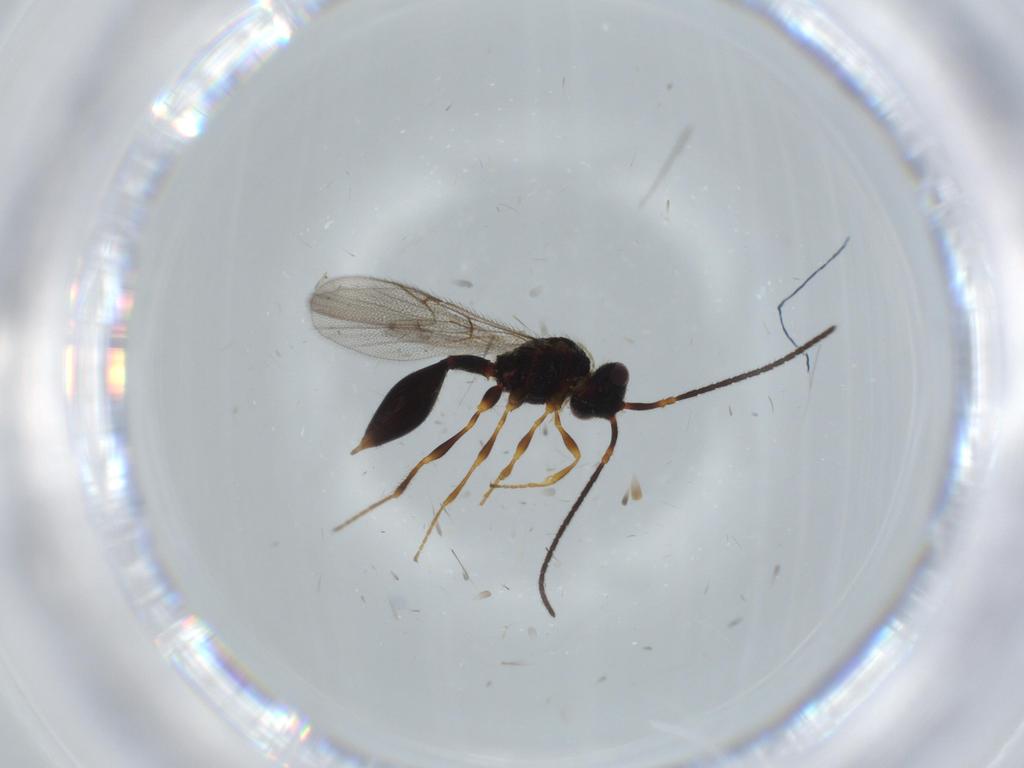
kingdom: Animalia
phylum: Arthropoda
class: Insecta
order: Hymenoptera
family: Diapriidae
